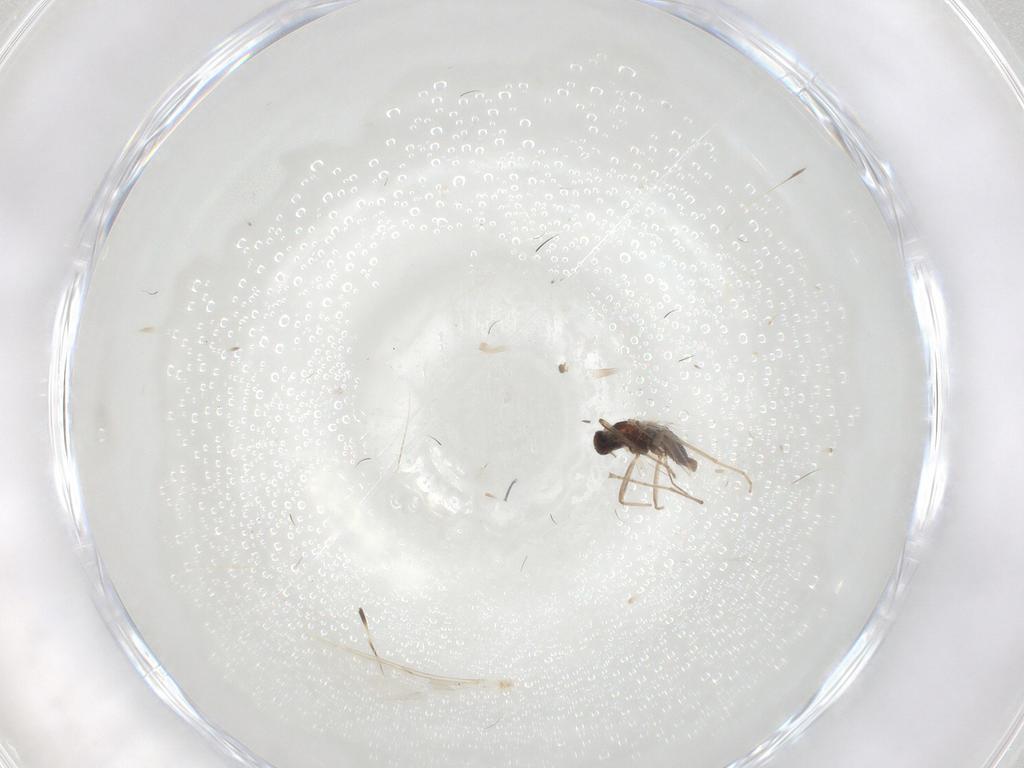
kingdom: Animalia
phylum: Arthropoda
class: Insecta
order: Diptera
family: Cecidomyiidae
